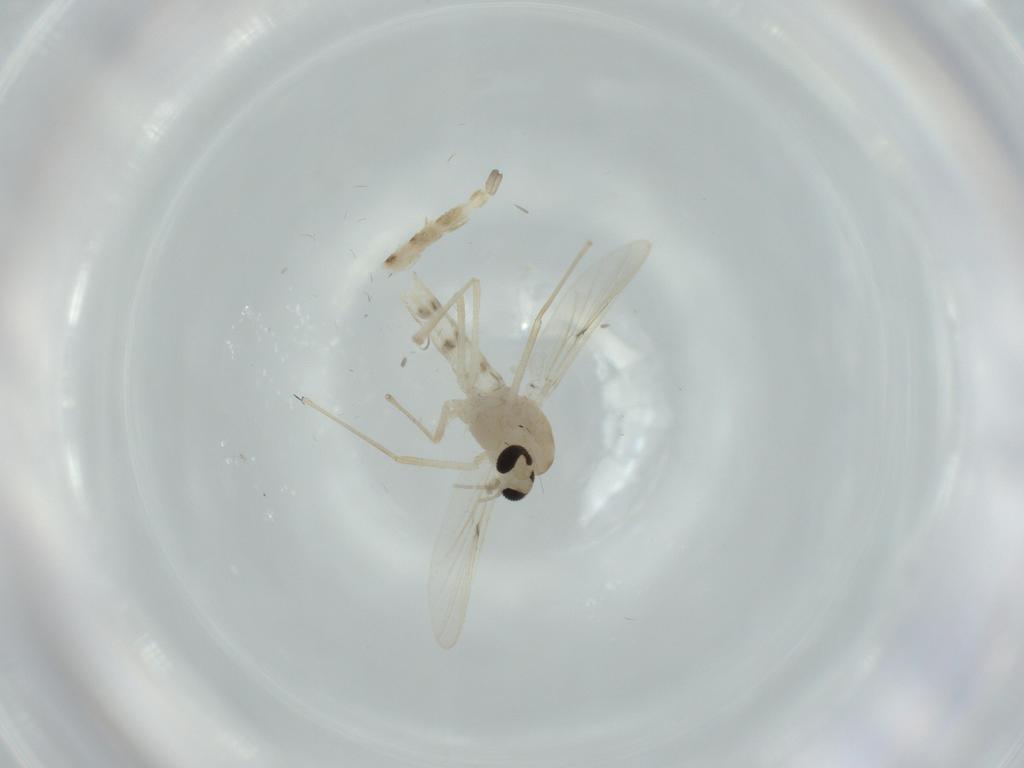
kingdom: Animalia
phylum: Arthropoda
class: Insecta
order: Diptera
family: Chironomidae
